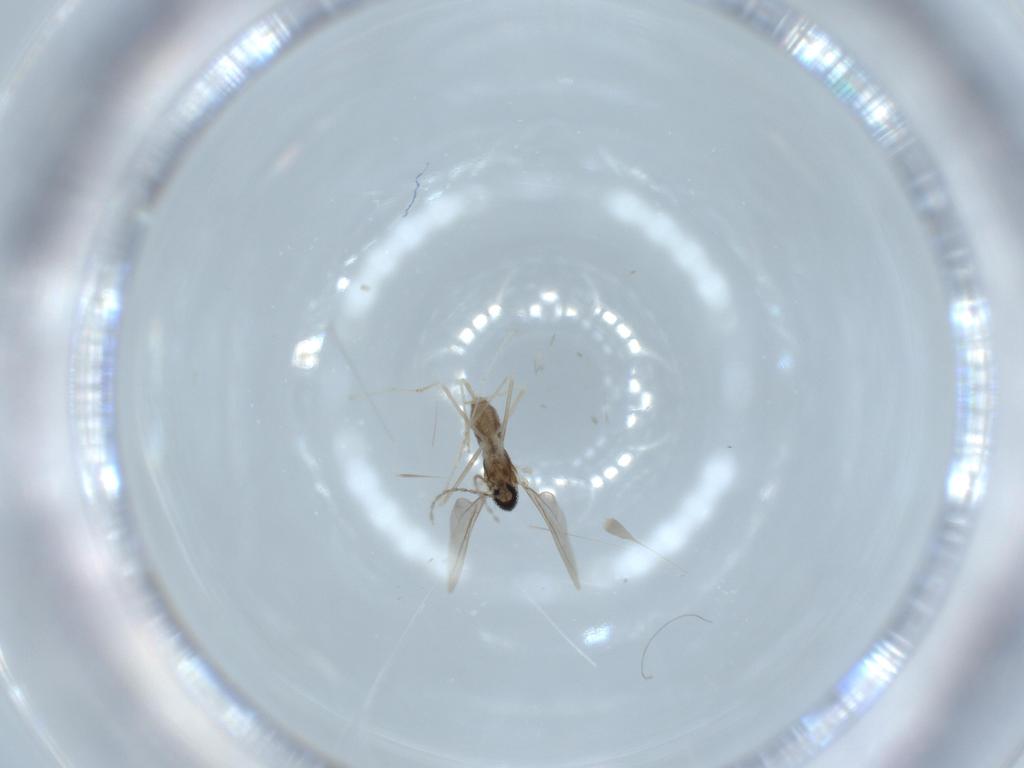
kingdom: Animalia
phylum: Arthropoda
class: Insecta
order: Diptera
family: Cecidomyiidae
